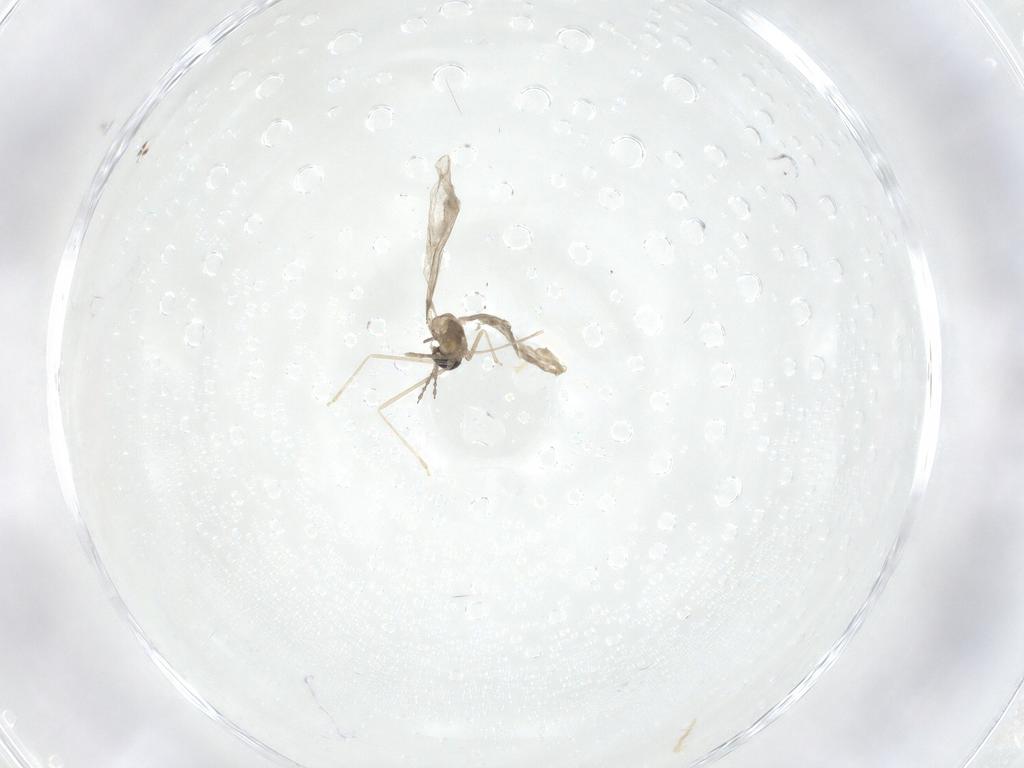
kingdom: Animalia
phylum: Arthropoda
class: Insecta
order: Diptera
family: Cecidomyiidae
